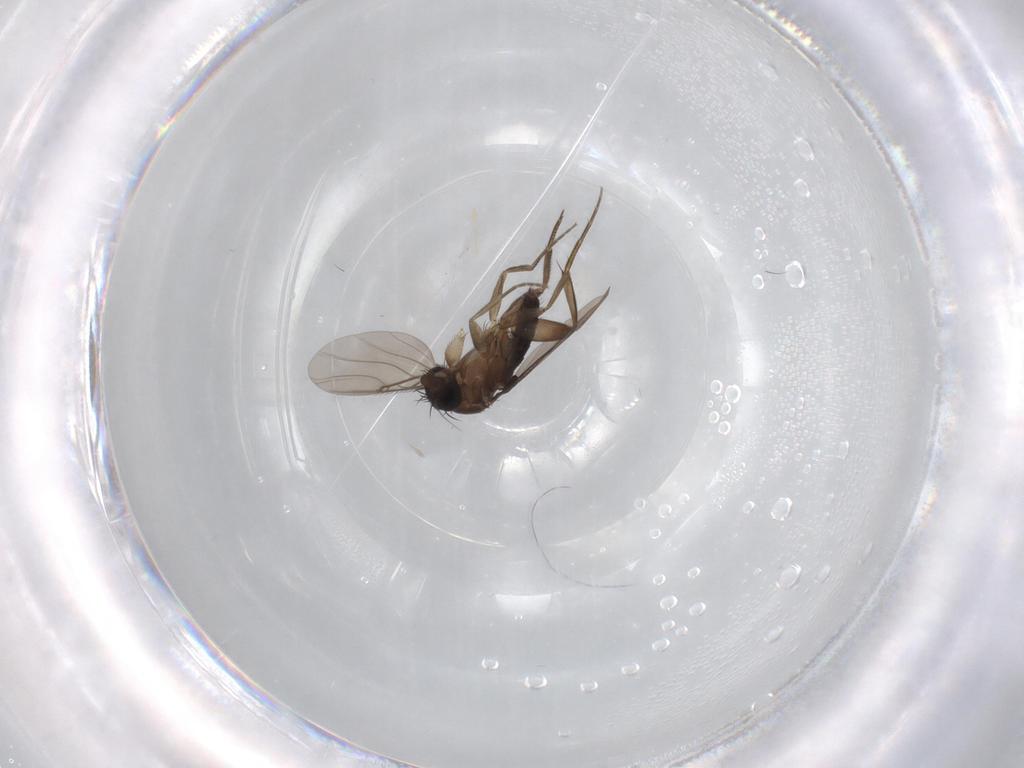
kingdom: Animalia
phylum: Arthropoda
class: Insecta
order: Diptera
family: Phoridae
